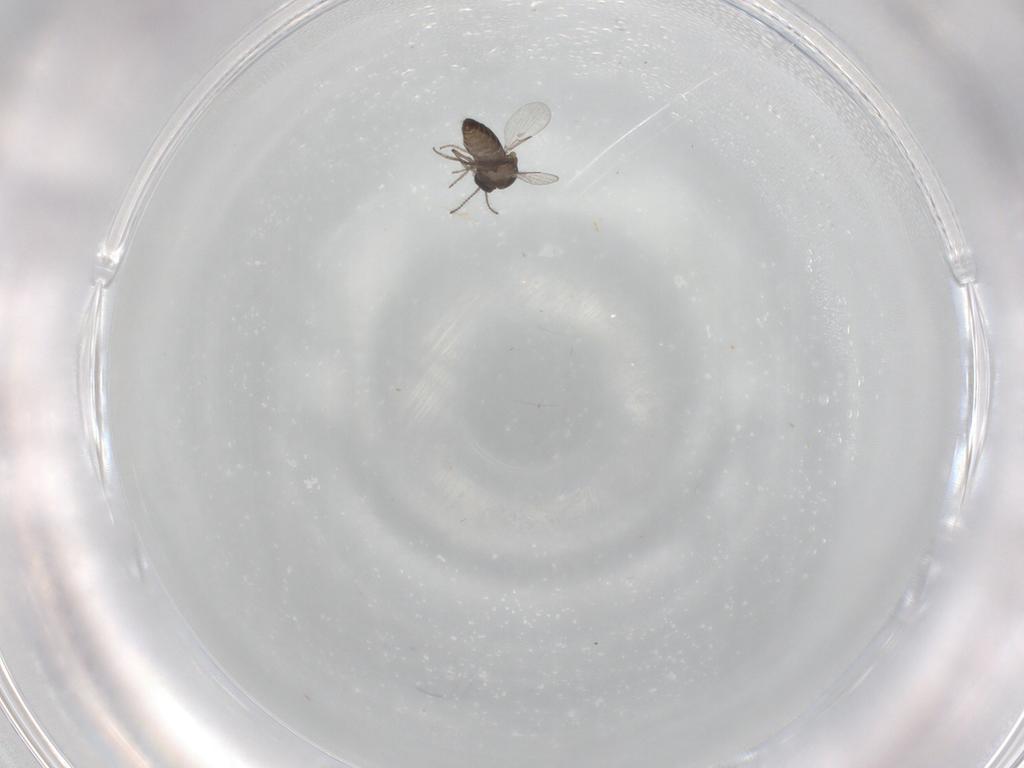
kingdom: Animalia
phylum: Arthropoda
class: Insecta
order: Diptera
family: Ceratopogonidae
